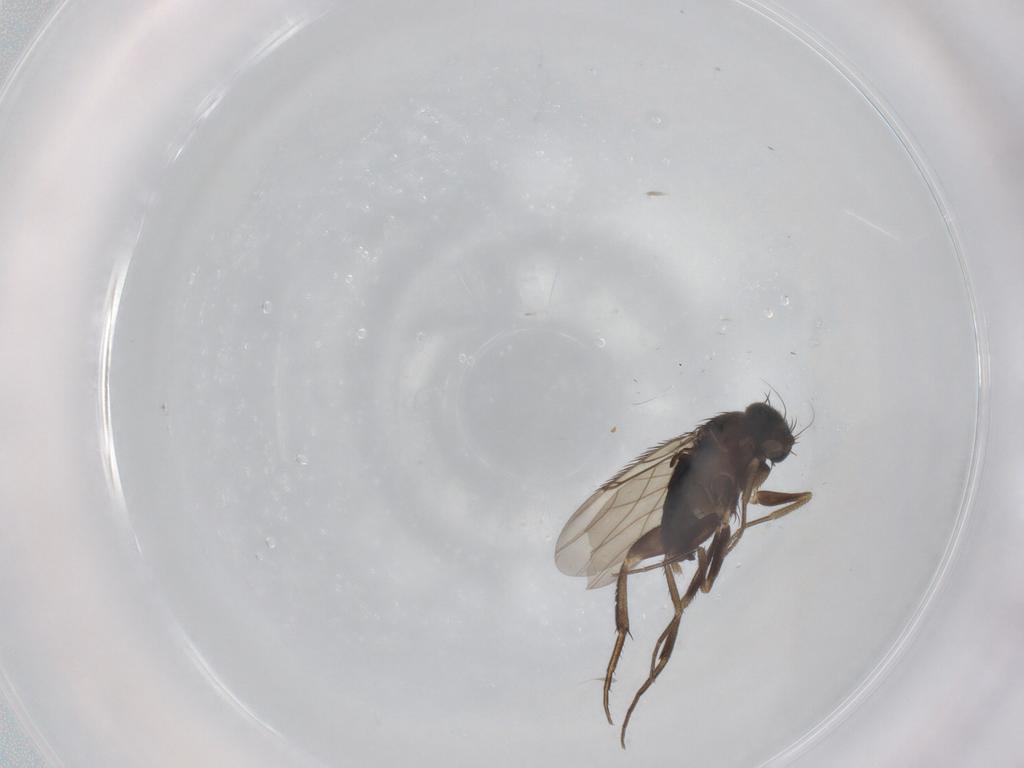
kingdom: Animalia
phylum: Arthropoda
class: Insecta
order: Diptera
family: Phoridae
